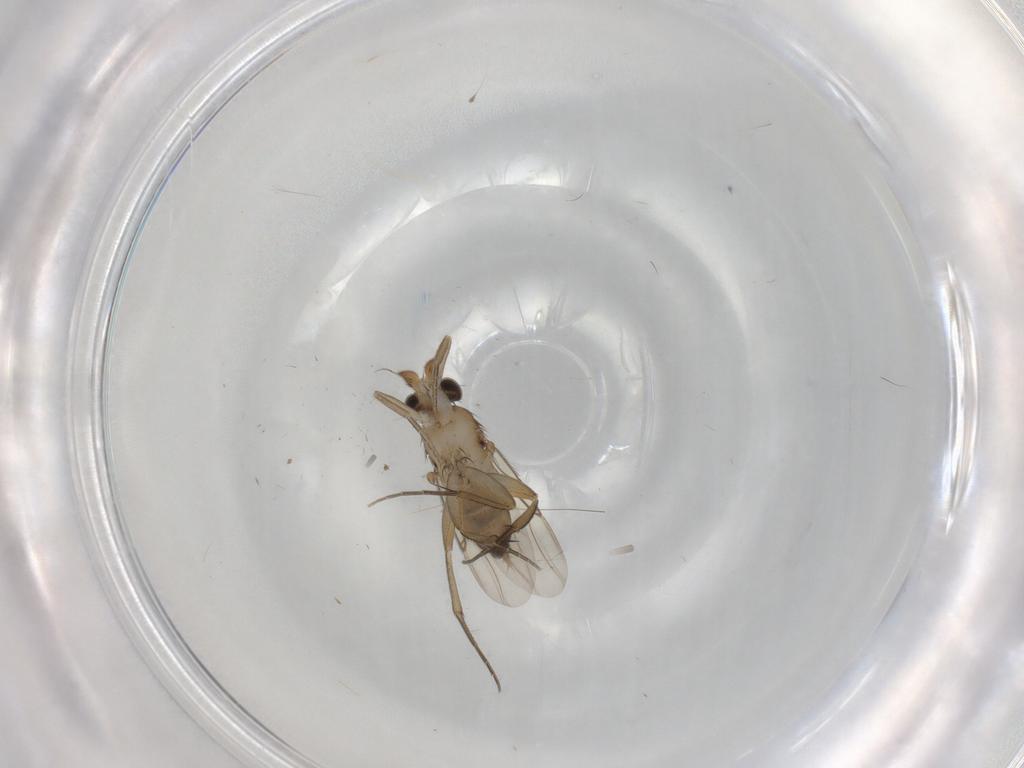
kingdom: Animalia
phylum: Arthropoda
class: Insecta
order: Diptera
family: Phoridae
